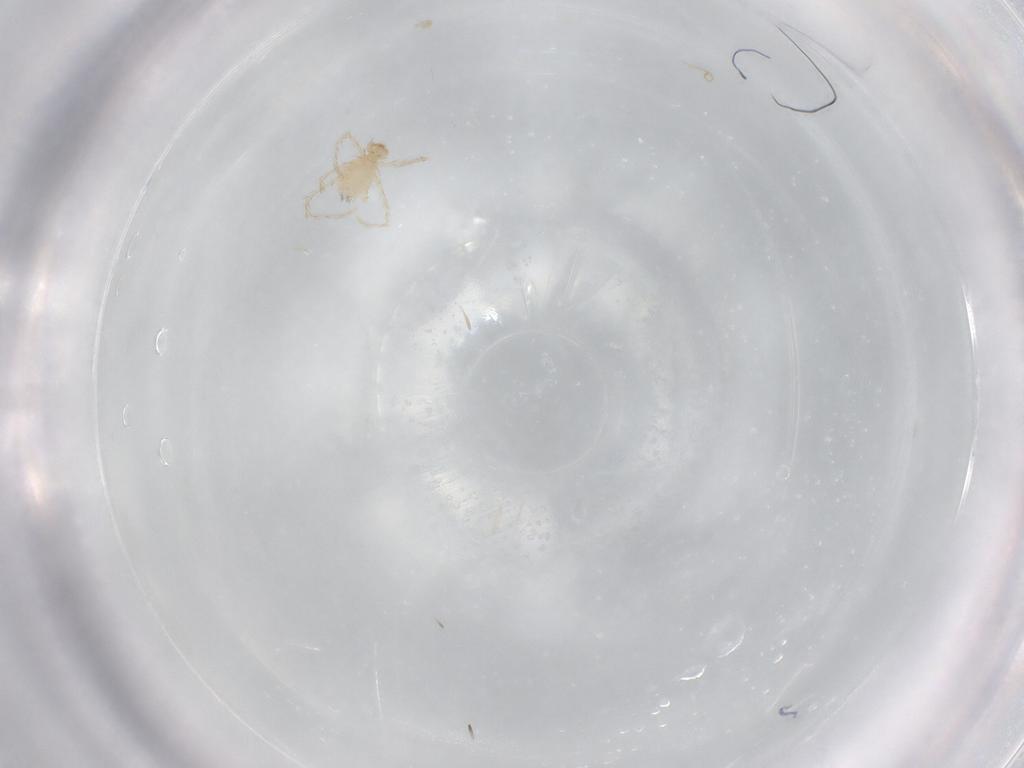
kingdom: Animalia
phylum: Arthropoda
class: Arachnida
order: Trombidiformes
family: Erythraeidae
